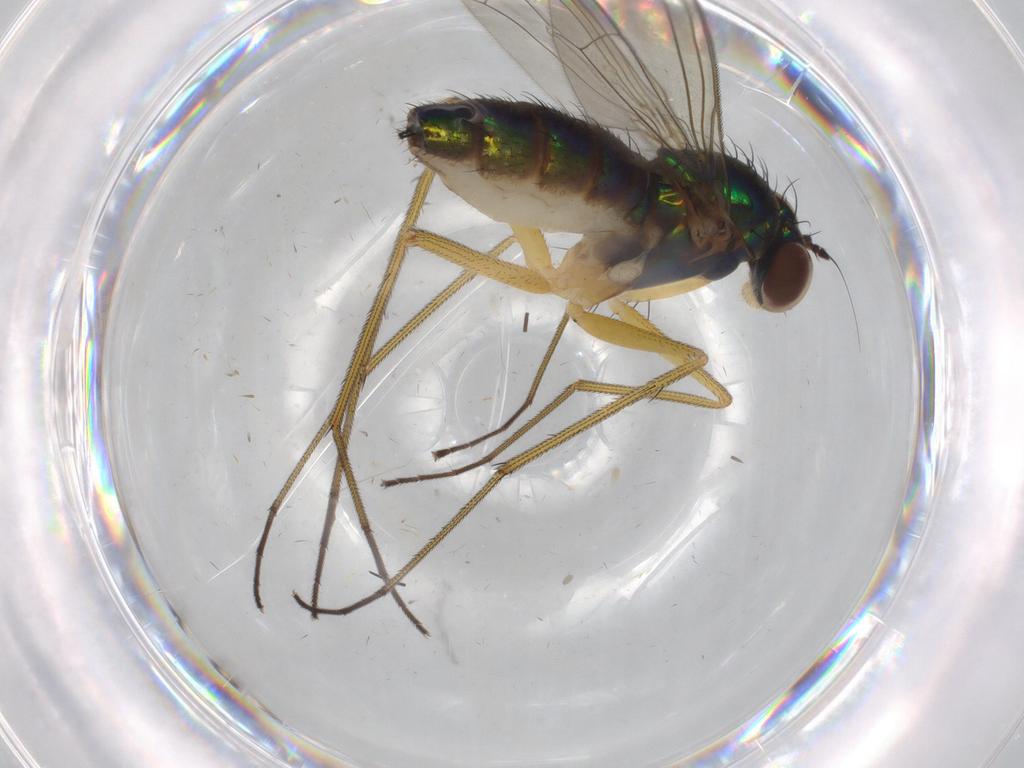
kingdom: Animalia
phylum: Arthropoda
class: Insecta
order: Diptera
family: Dolichopodidae
